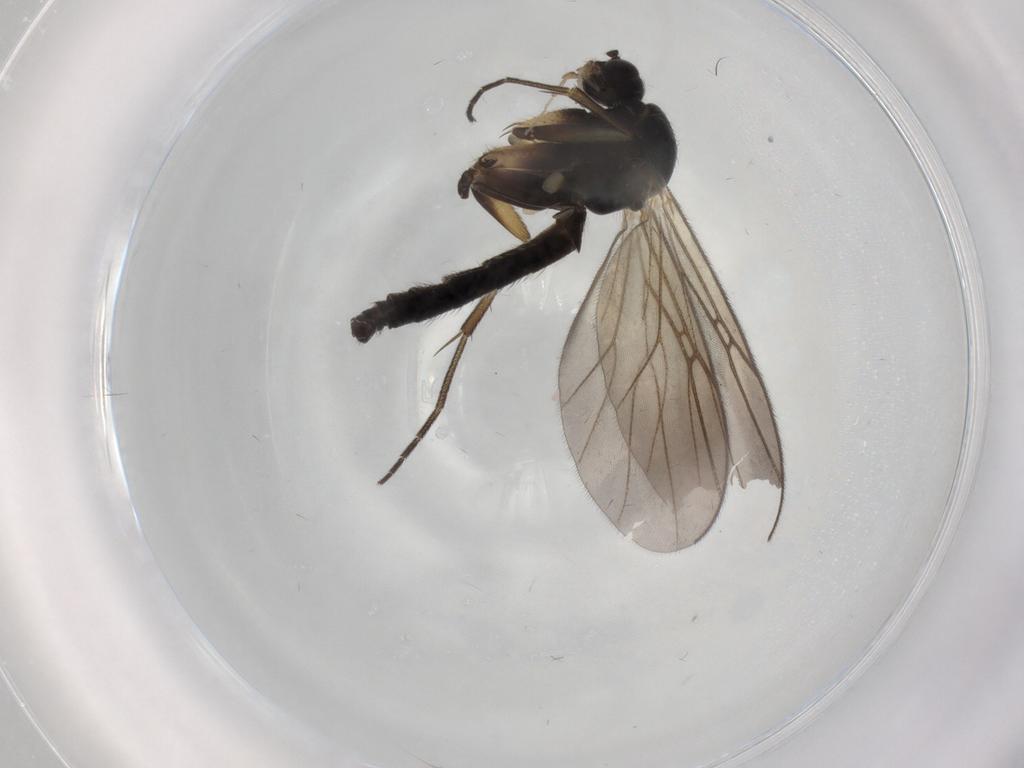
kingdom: Animalia
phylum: Arthropoda
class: Insecta
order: Diptera
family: Mycetophilidae
